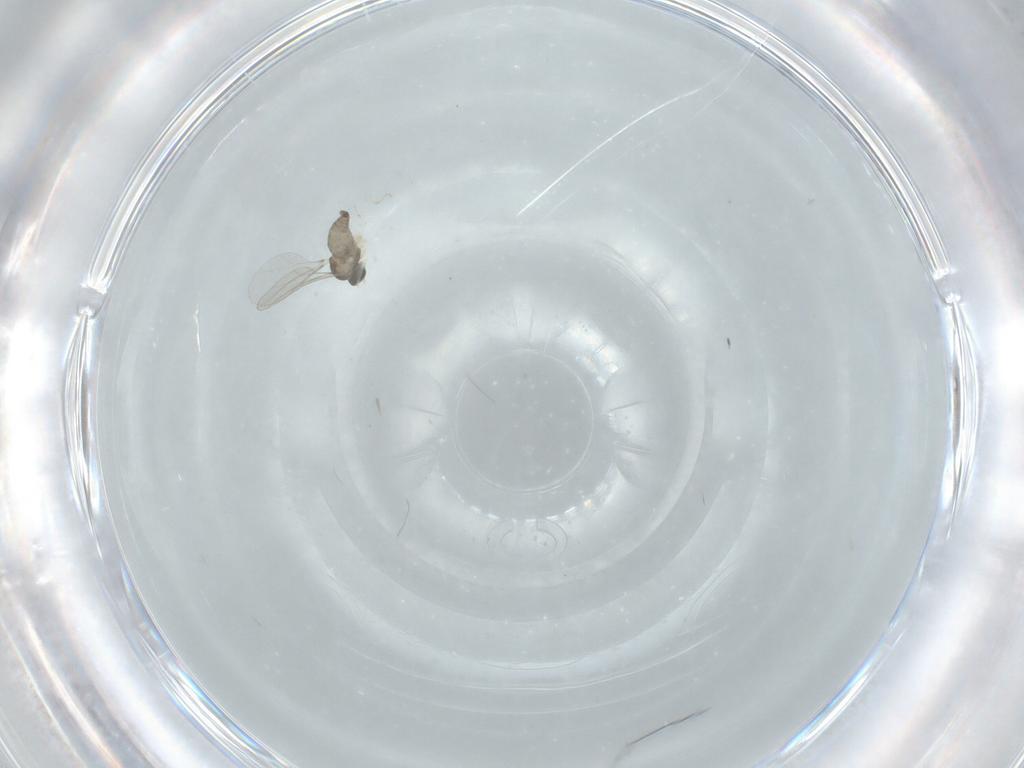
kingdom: Animalia
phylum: Arthropoda
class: Insecta
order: Diptera
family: Cecidomyiidae
